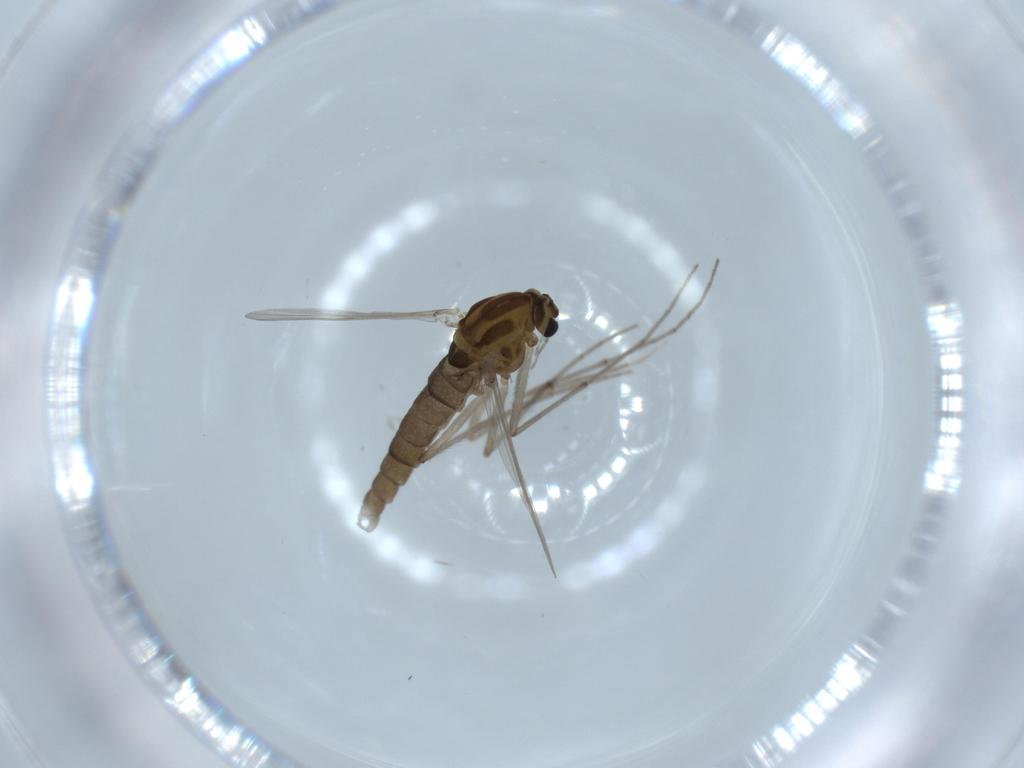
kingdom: Animalia
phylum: Arthropoda
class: Insecta
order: Diptera
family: Chironomidae
